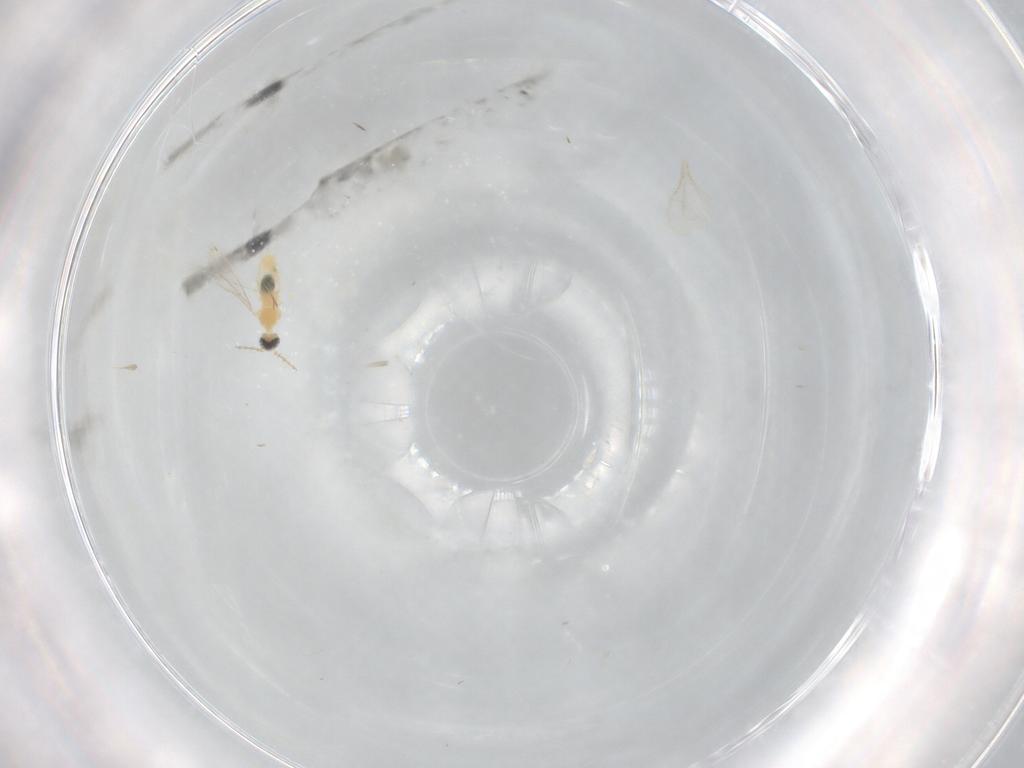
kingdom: Animalia
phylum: Arthropoda
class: Insecta
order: Diptera
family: Cecidomyiidae
